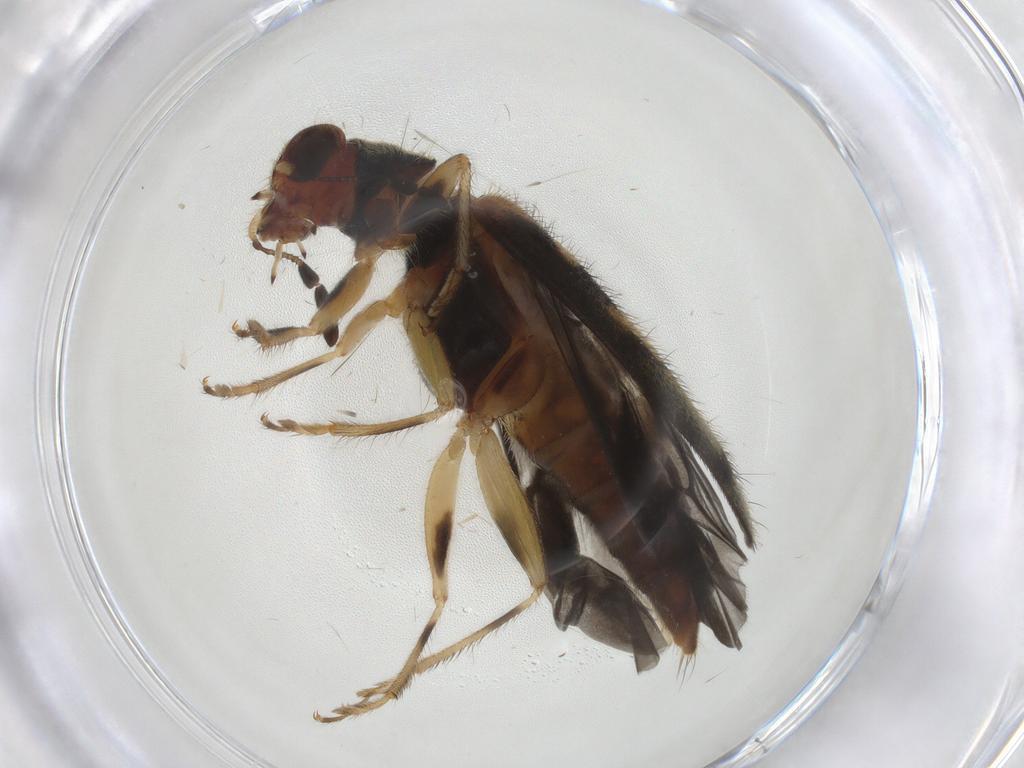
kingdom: Animalia
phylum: Arthropoda
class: Insecta
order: Coleoptera
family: Cleridae
